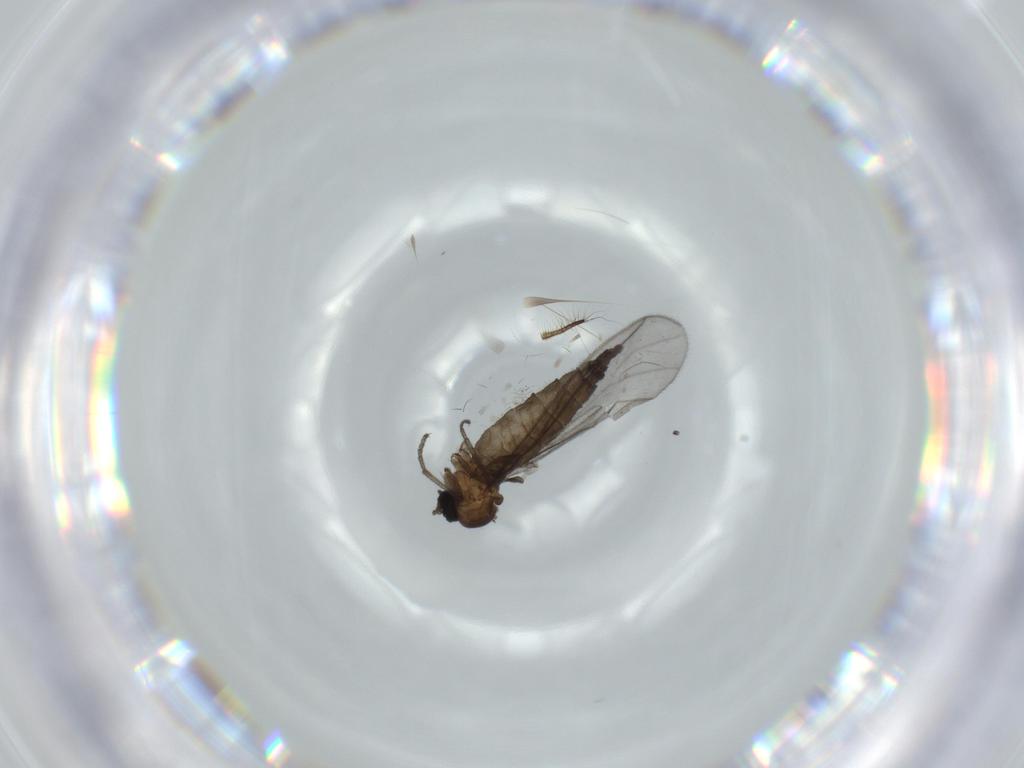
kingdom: Animalia
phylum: Arthropoda
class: Insecta
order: Diptera
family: Sciaridae
